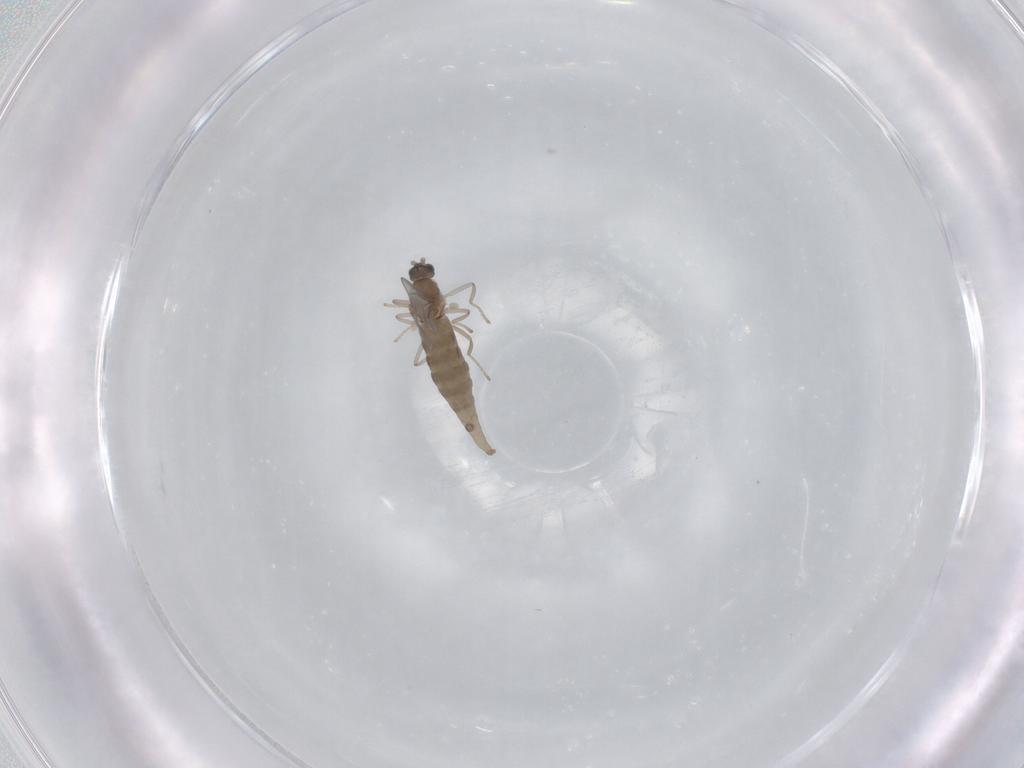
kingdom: Animalia
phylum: Arthropoda
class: Insecta
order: Diptera
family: Cecidomyiidae
